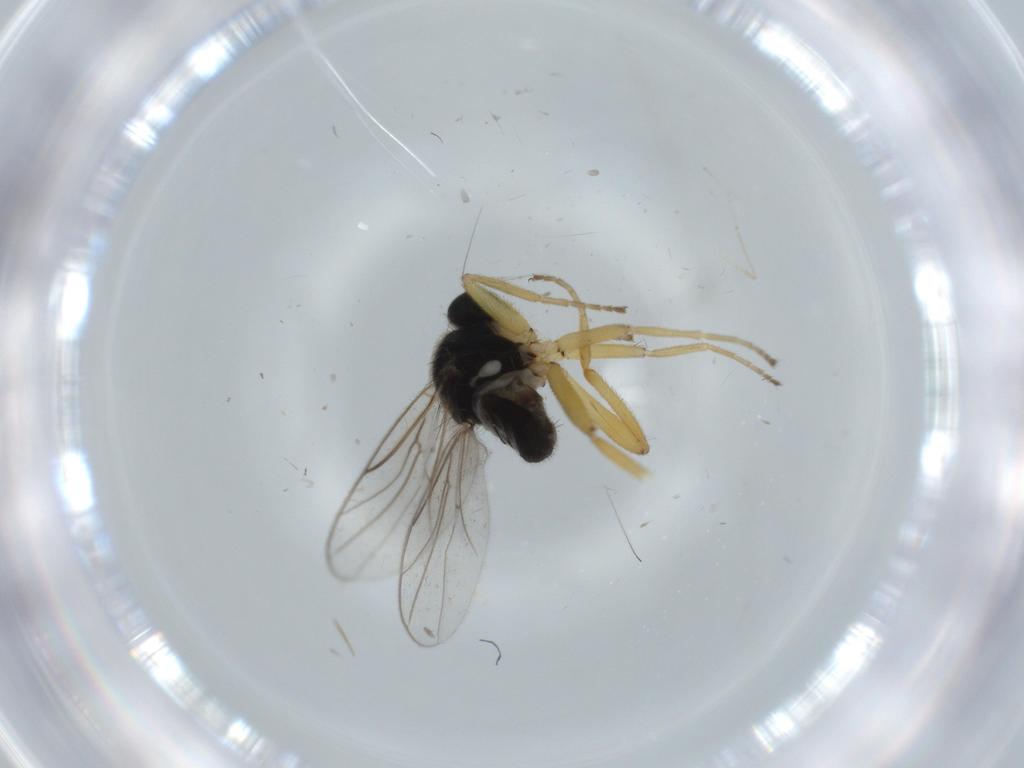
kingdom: Animalia
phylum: Arthropoda
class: Insecta
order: Diptera
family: Hybotidae
